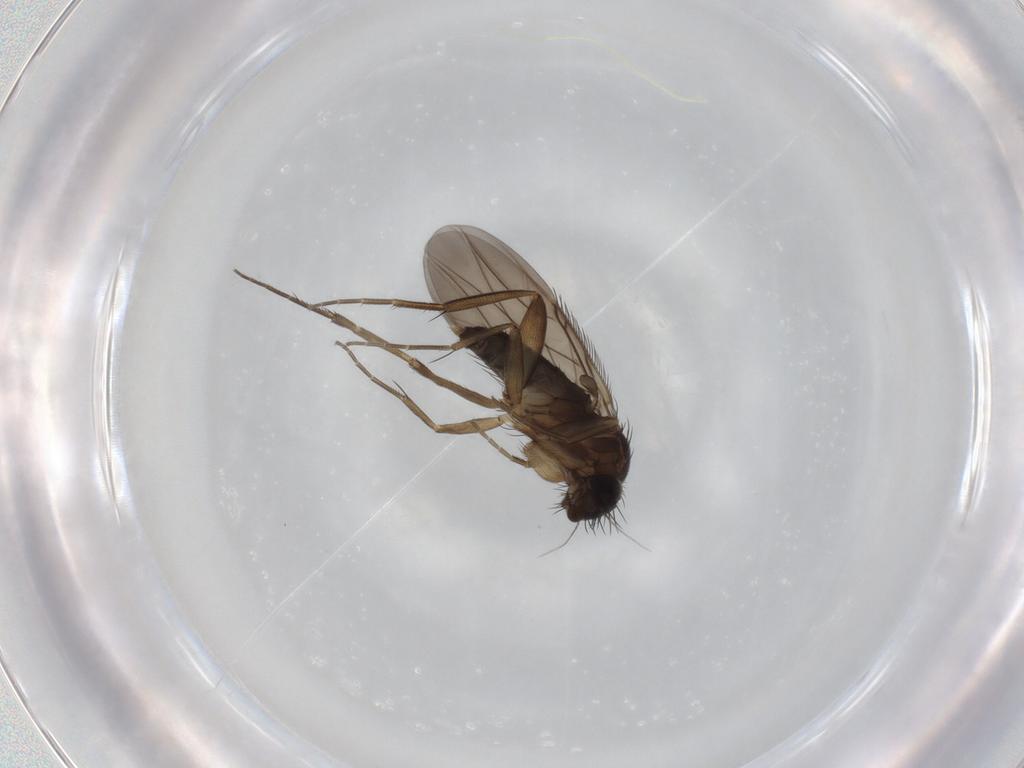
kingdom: Animalia
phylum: Arthropoda
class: Insecta
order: Diptera
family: Phoridae
